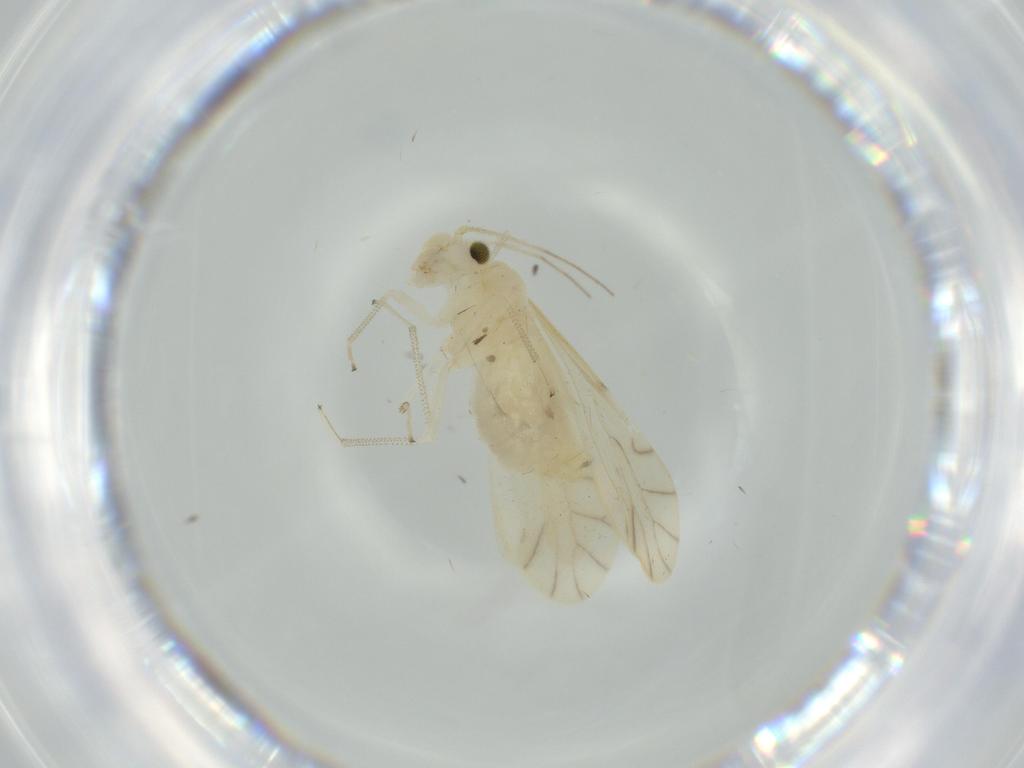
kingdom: Animalia
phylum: Arthropoda
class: Insecta
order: Psocodea
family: Caeciliusidae
